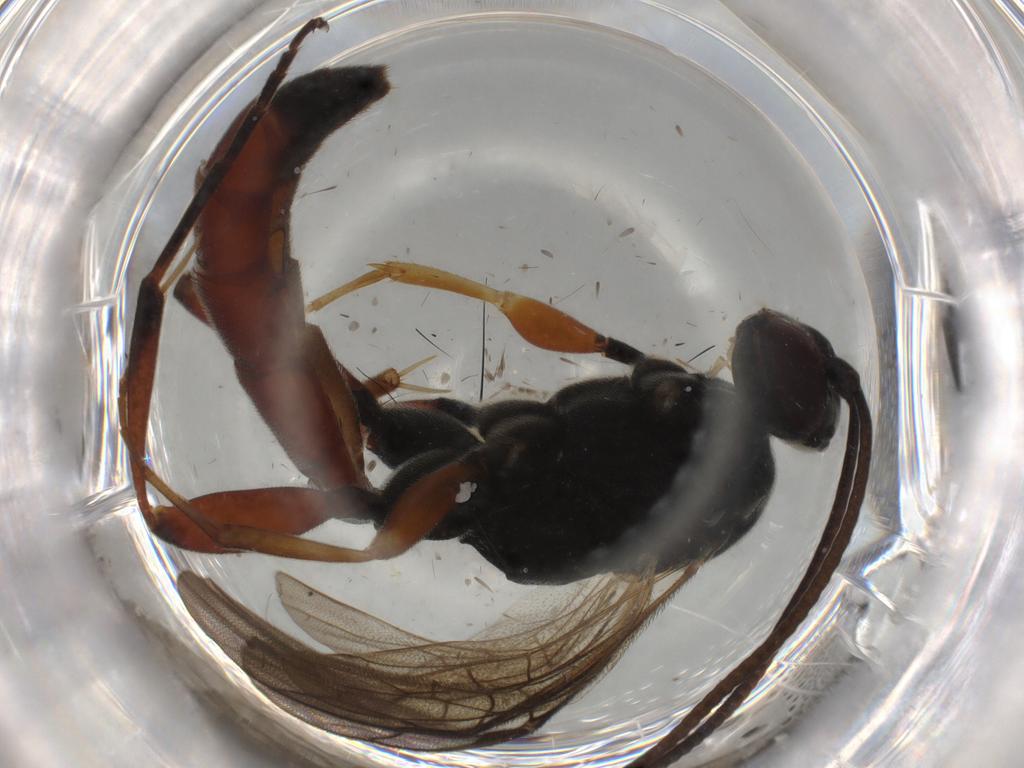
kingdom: Animalia
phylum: Arthropoda
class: Insecta
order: Hymenoptera
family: Ichneumonidae
